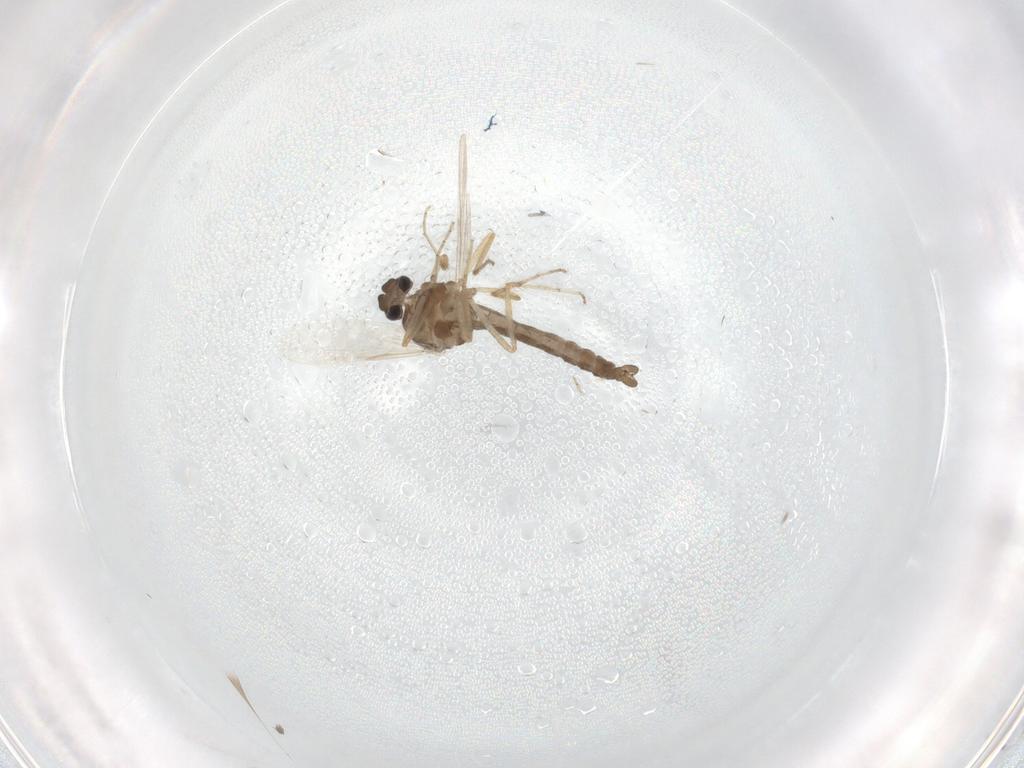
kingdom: Animalia
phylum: Arthropoda
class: Insecta
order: Diptera
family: Ceratopogonidae
